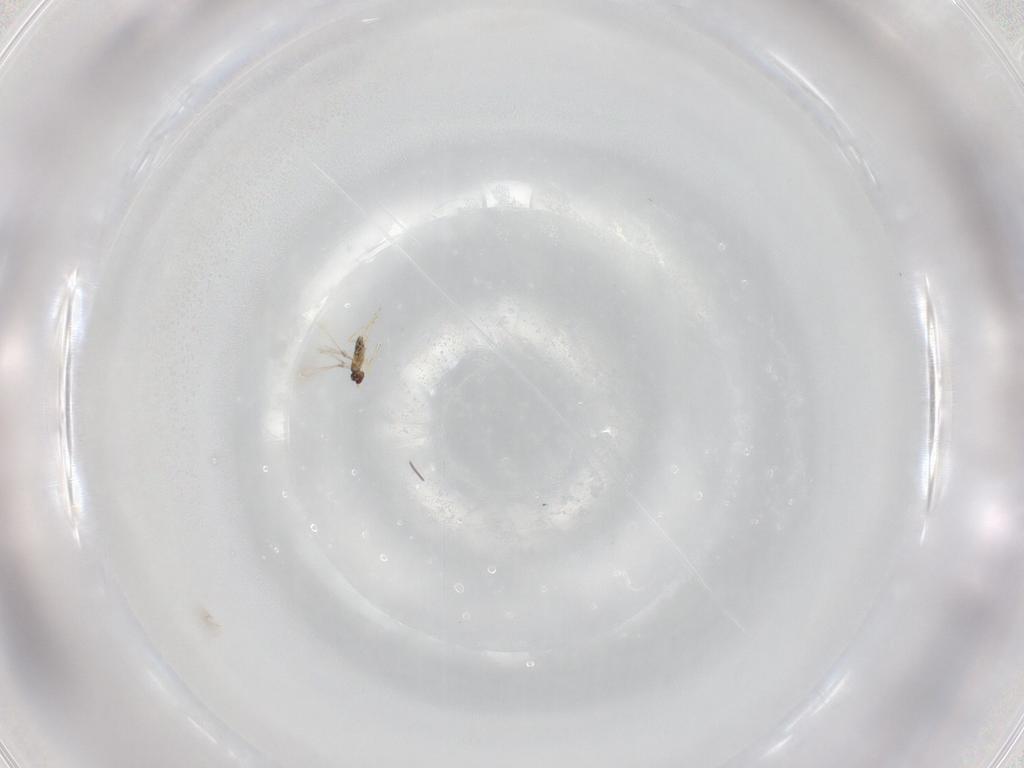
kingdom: Animalia
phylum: Arthropoda
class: Insecta
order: Hymenoptera
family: Mymaridae
